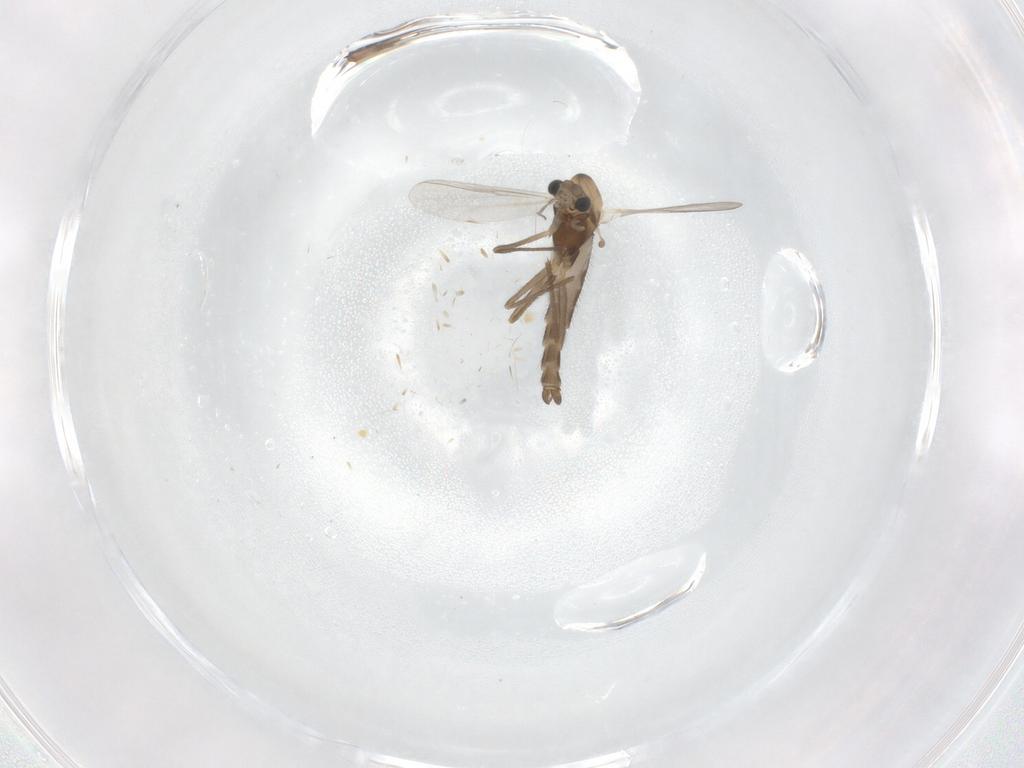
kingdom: Animalia
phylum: Arthropoda
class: Insecta
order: Diptera
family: Chironomidae
